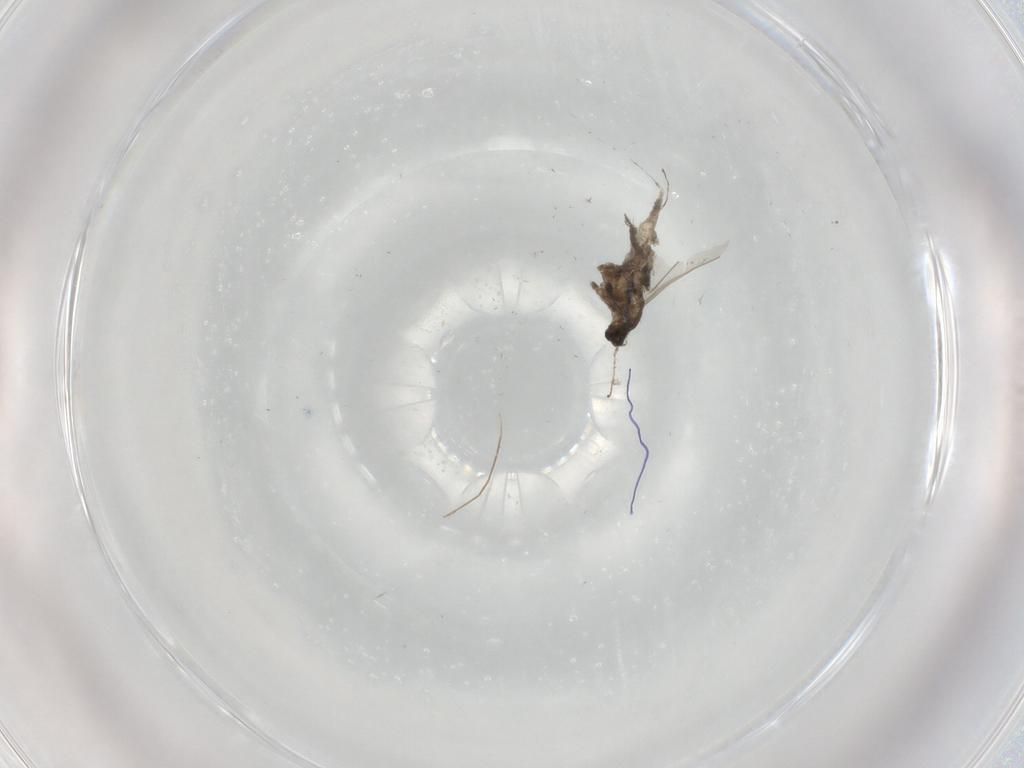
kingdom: Animalia
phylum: Arthropoda
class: Insecta
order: Diptera
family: Cecidomyiidae
